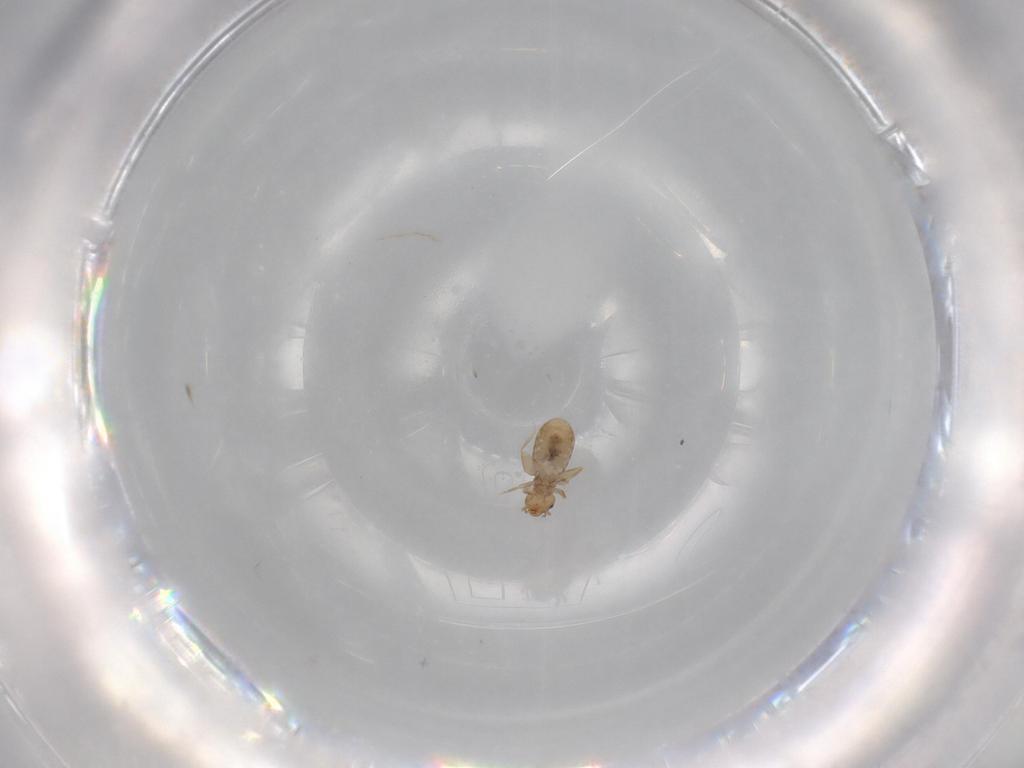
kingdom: Animalia
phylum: Arthropoda
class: Insecta
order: Psocodea
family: Liposcelididae
